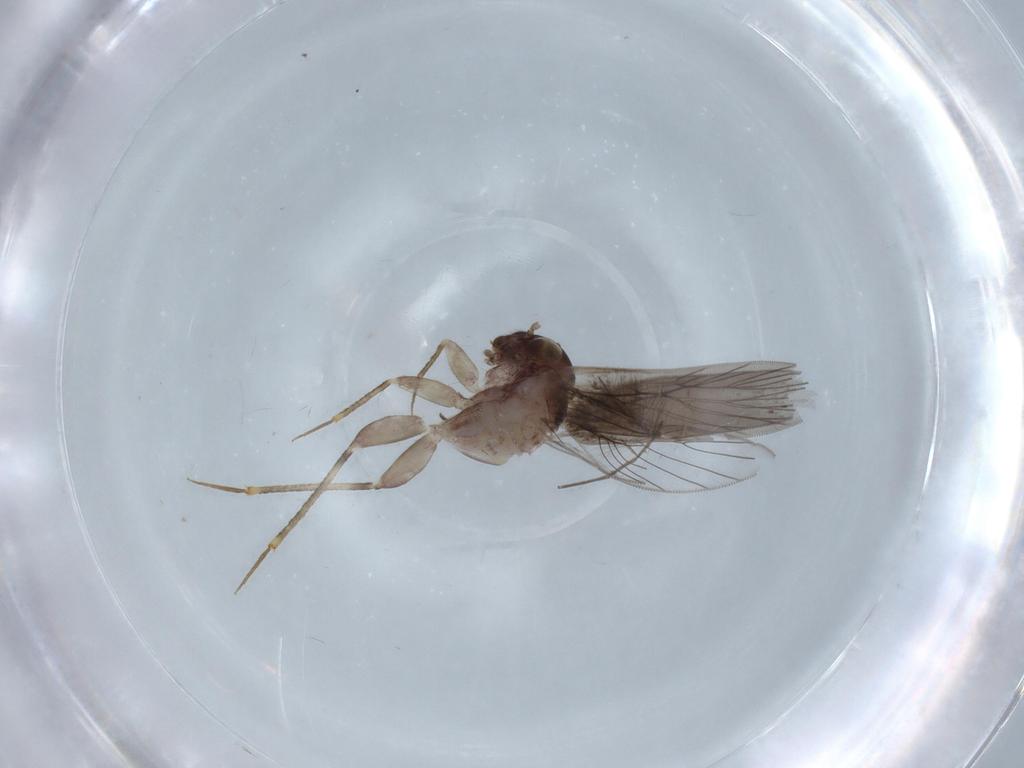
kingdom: Animalia
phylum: Arthropoda
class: Insecta
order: Psocodea
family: Lepidopsocidae
